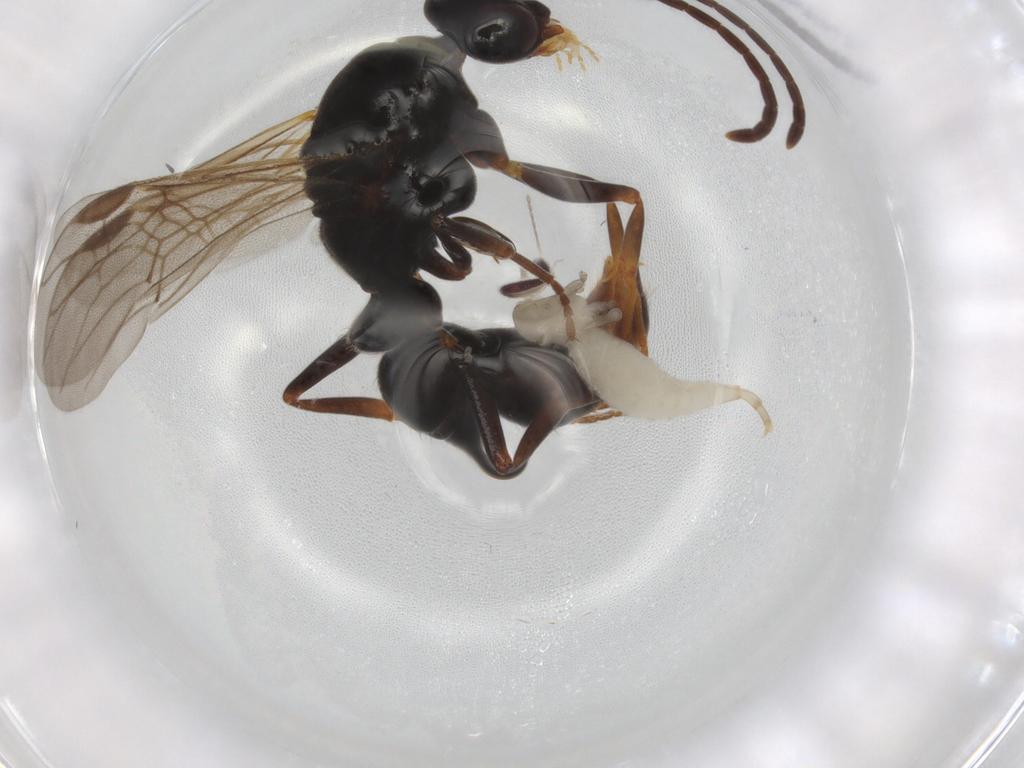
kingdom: Animalia
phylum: Arthropoda
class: Insecta
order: Hymenoptera
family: Formicidae
